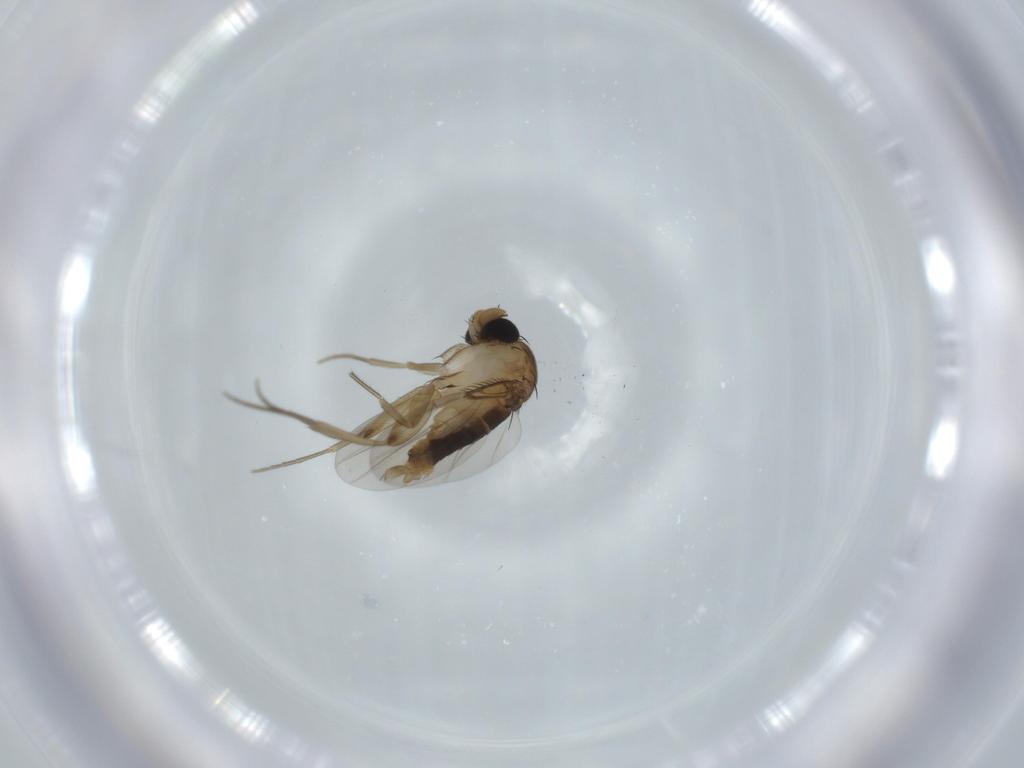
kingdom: Animalia
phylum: Arthropoda
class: Insecta
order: Diptera
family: Phoridae
